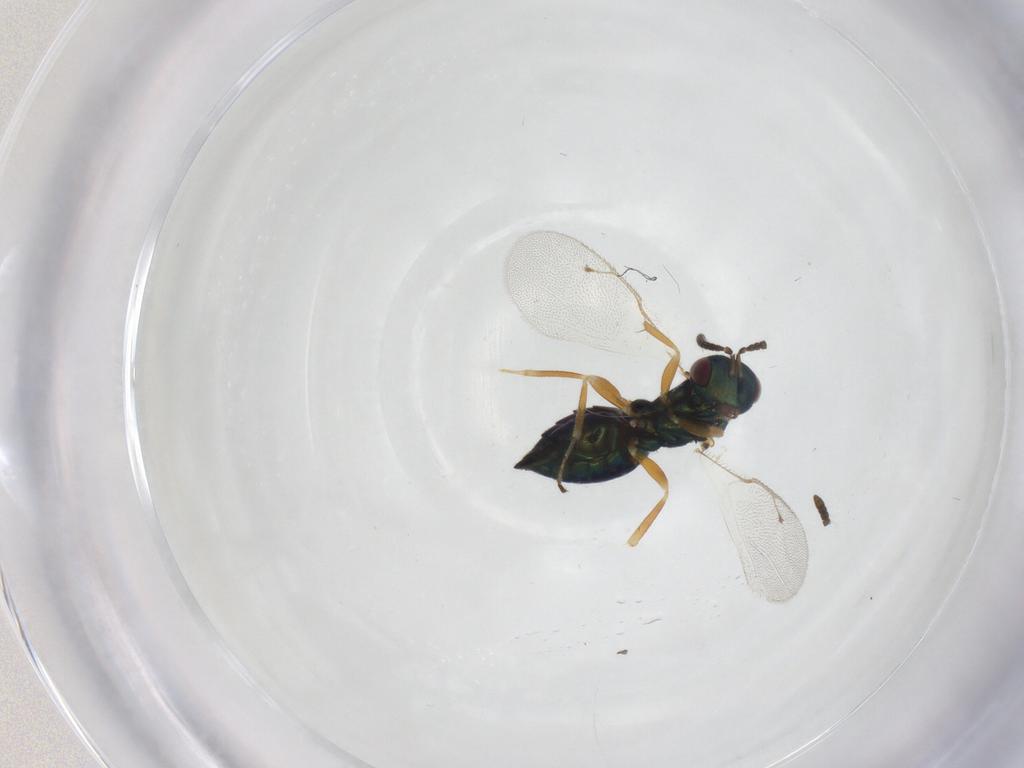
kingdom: Animalia
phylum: Arthropoda
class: Insecta
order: Hymenoptera
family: Pteromalidae
